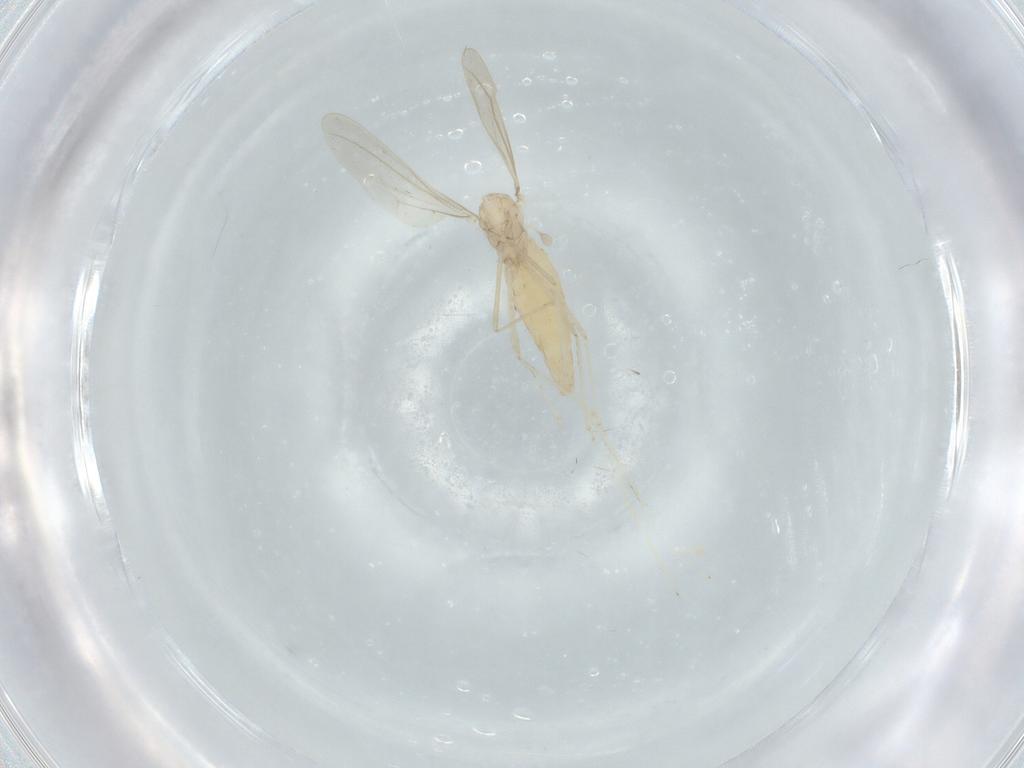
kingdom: Animalia
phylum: Arthropoda
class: Insecta
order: Diptera
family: Cecidomyiidae
